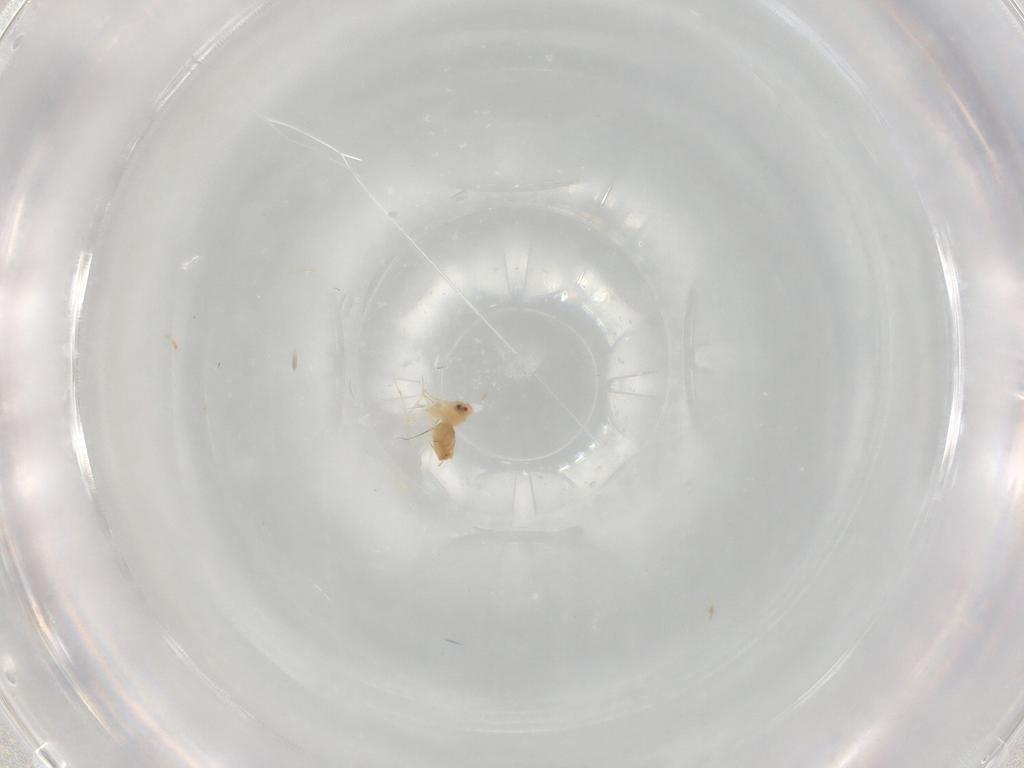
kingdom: Animalia
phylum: Arthropoda
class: Insecta
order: Hemiptera
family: Aleyrodidae
